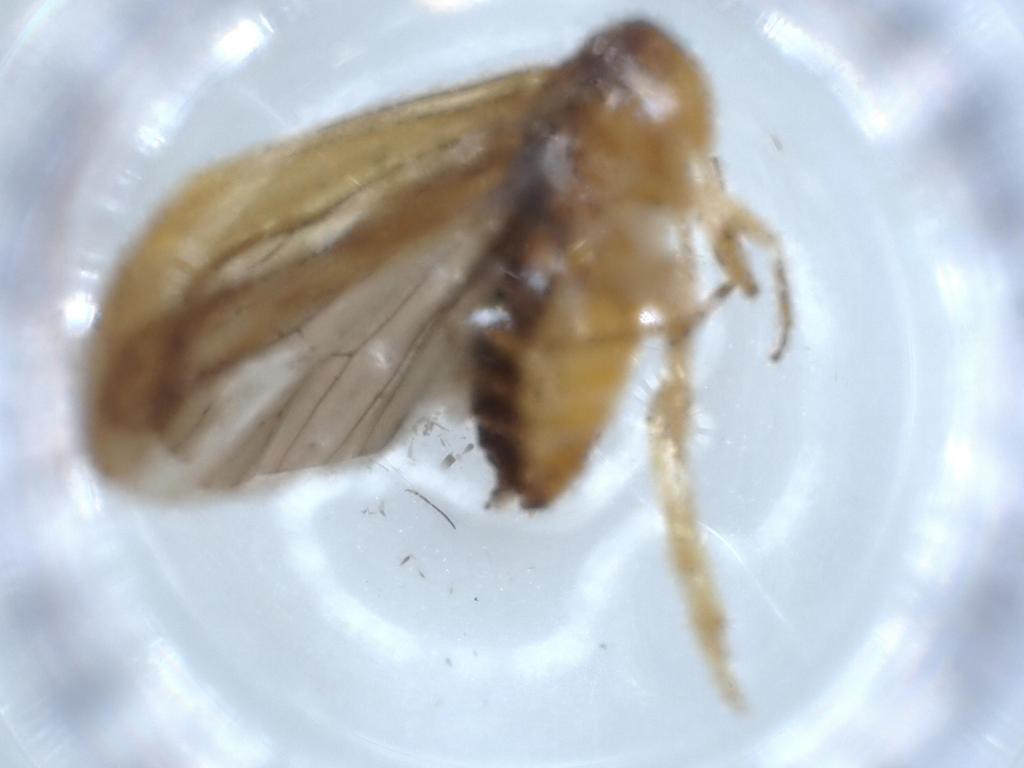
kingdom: Animalia
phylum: Arthropoda
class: Insecta
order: Hemiptera
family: Achilidae
